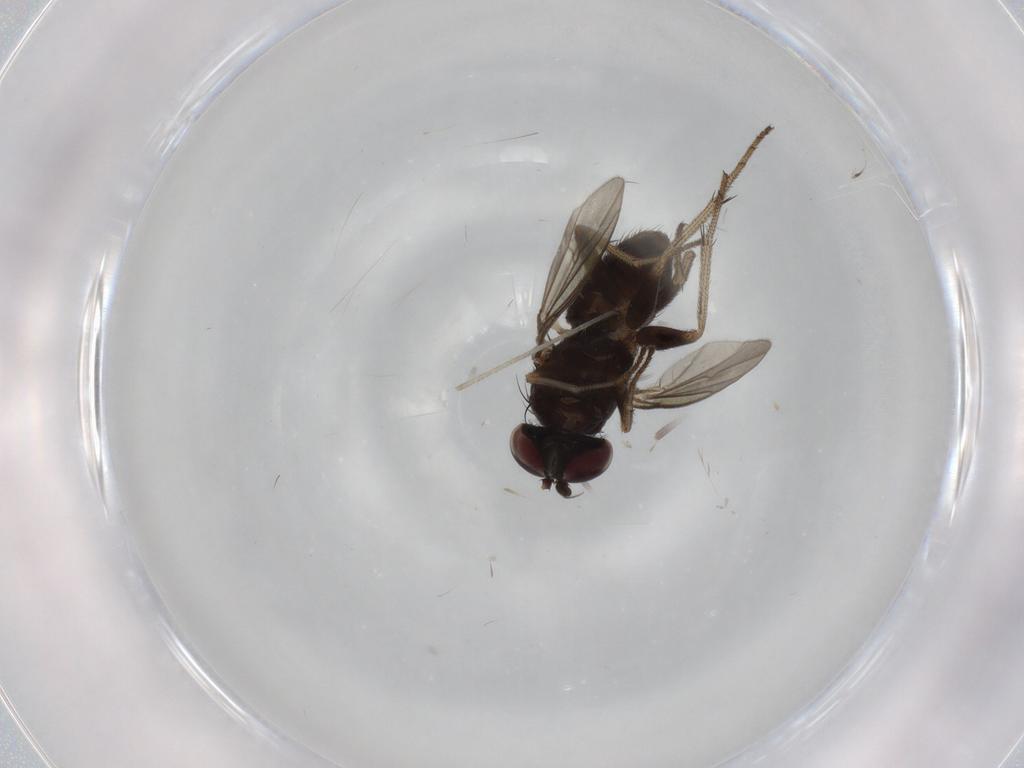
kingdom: Animalia
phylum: Arthropoda
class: Insecta
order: Diptera
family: Dolichopodidae
